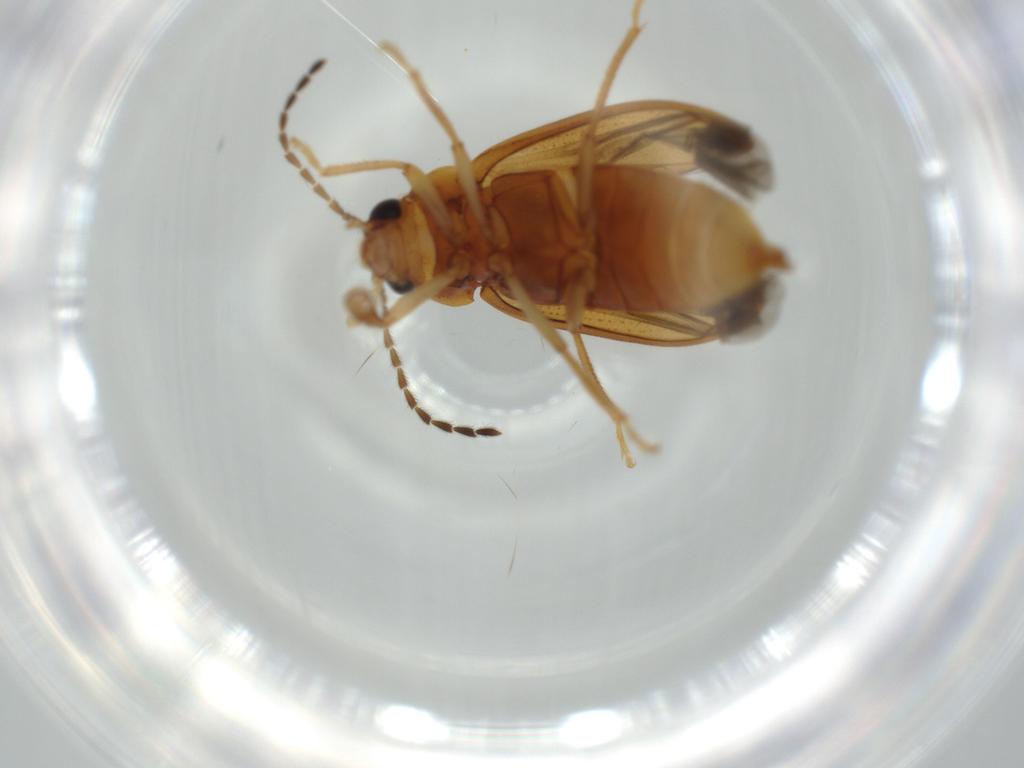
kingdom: Animalia
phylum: Arthropoda
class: Insecta
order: Coleoptera
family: Ptilodactylidae
